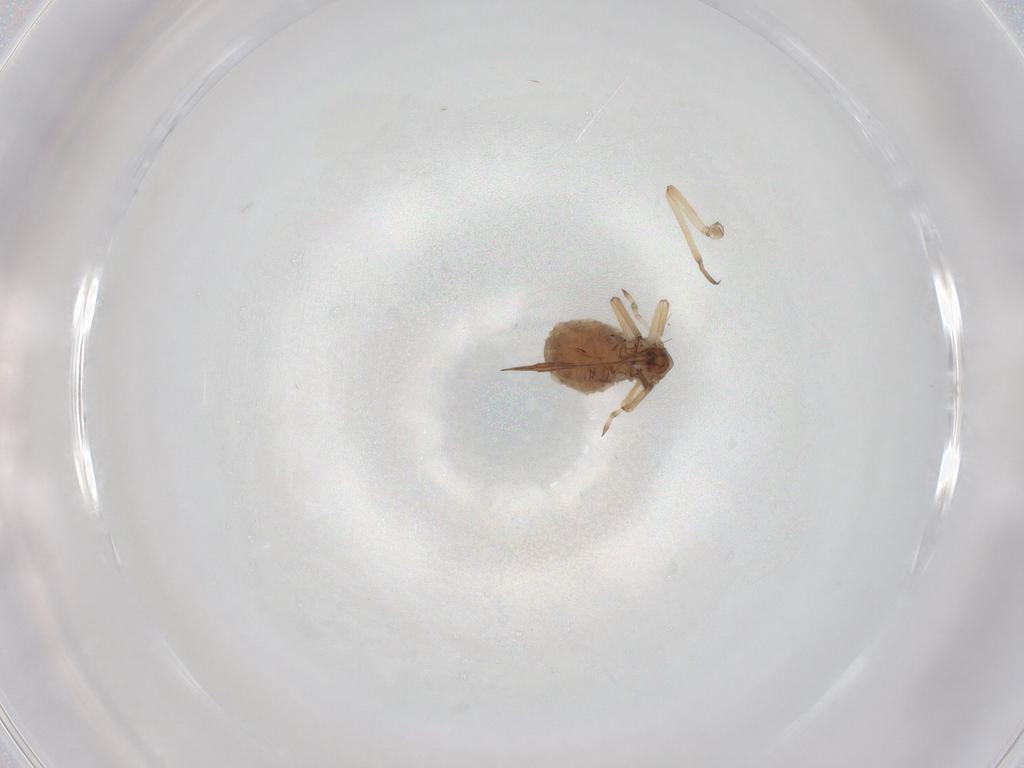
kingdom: Animalia
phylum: Arthropoda
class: Insecta
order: Hemiptera
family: Aphididae
